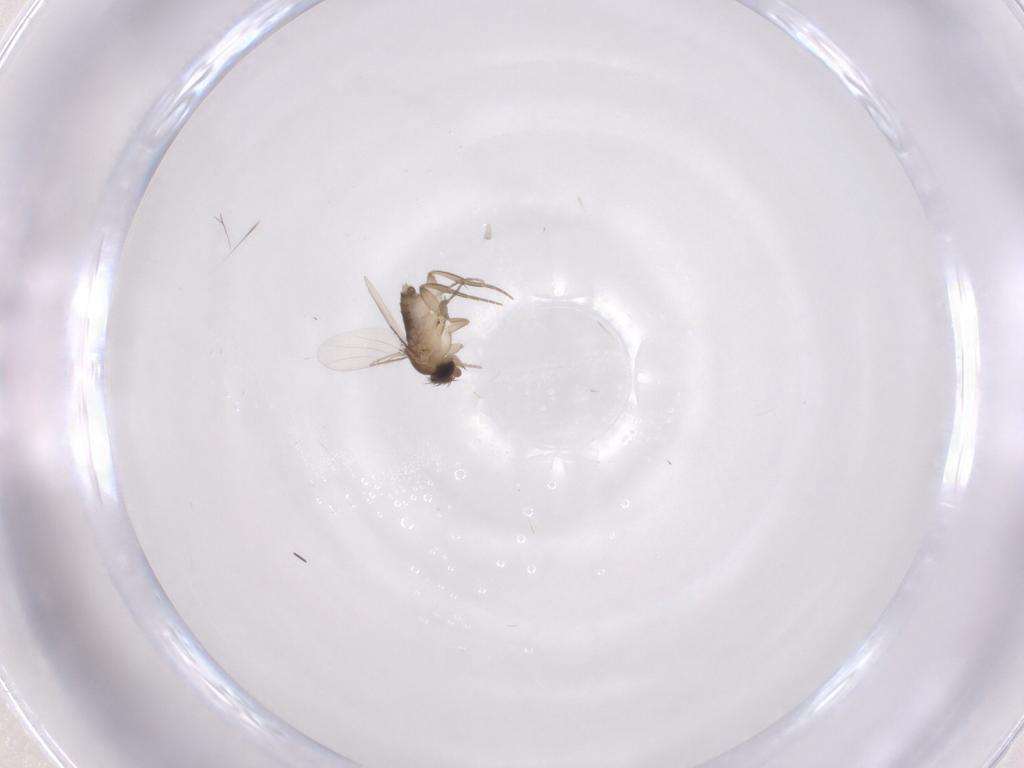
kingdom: Animalia
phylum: Arthropoda
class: Insecta
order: Diptera
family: Phoridae
